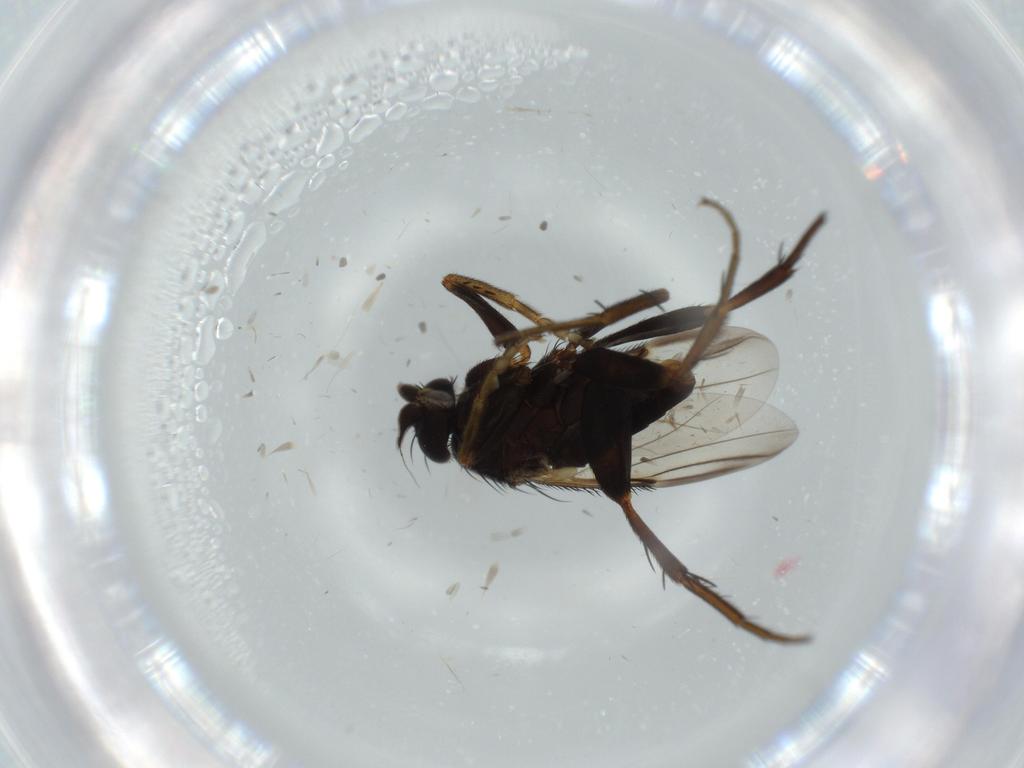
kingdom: Animalia
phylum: Arthropoda
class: Insecta
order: Diptera
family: Phoridae
